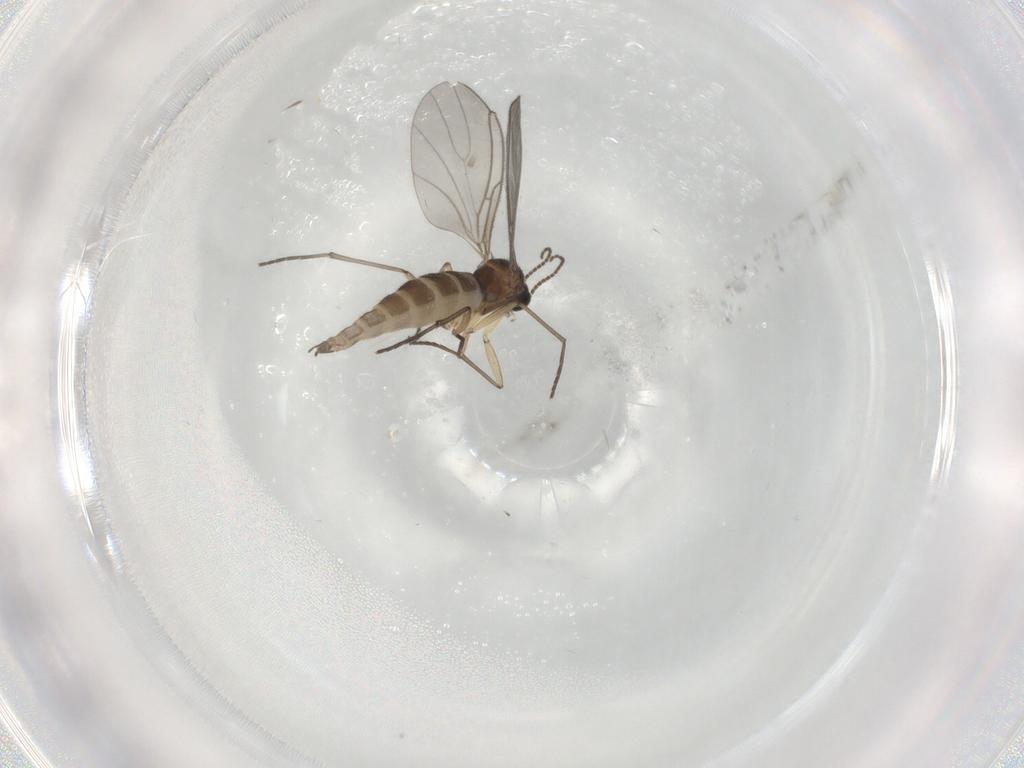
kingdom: Animalia
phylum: Arthropoda
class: Insecta
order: Diptera
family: Sciaridae
